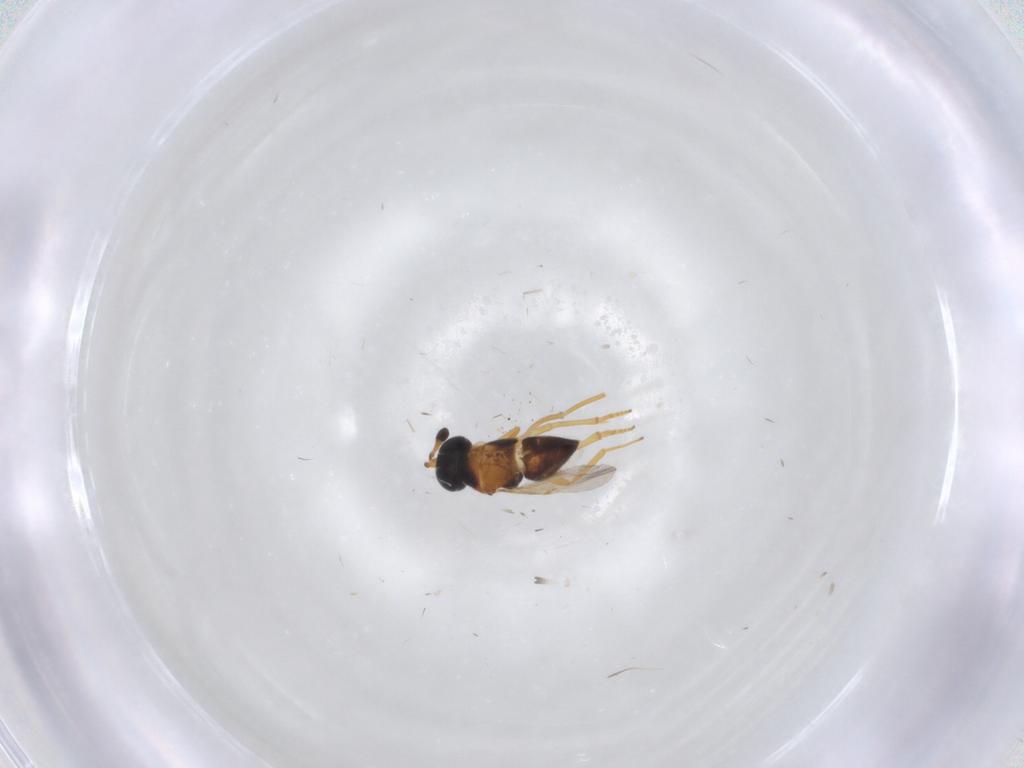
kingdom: Animalia
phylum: Arthropoda
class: Insecta
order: Hymenoptera
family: Encyrtidae
